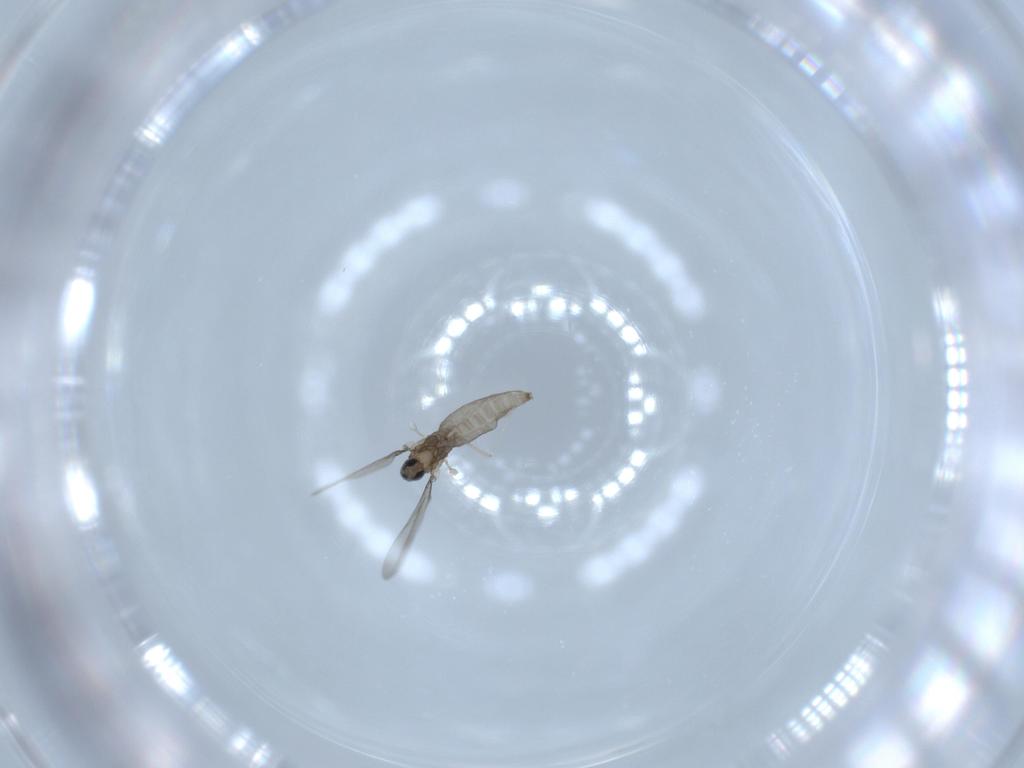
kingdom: Animalia
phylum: Arthropoda
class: Insecta
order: Diptera
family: Cecidomyiidae
